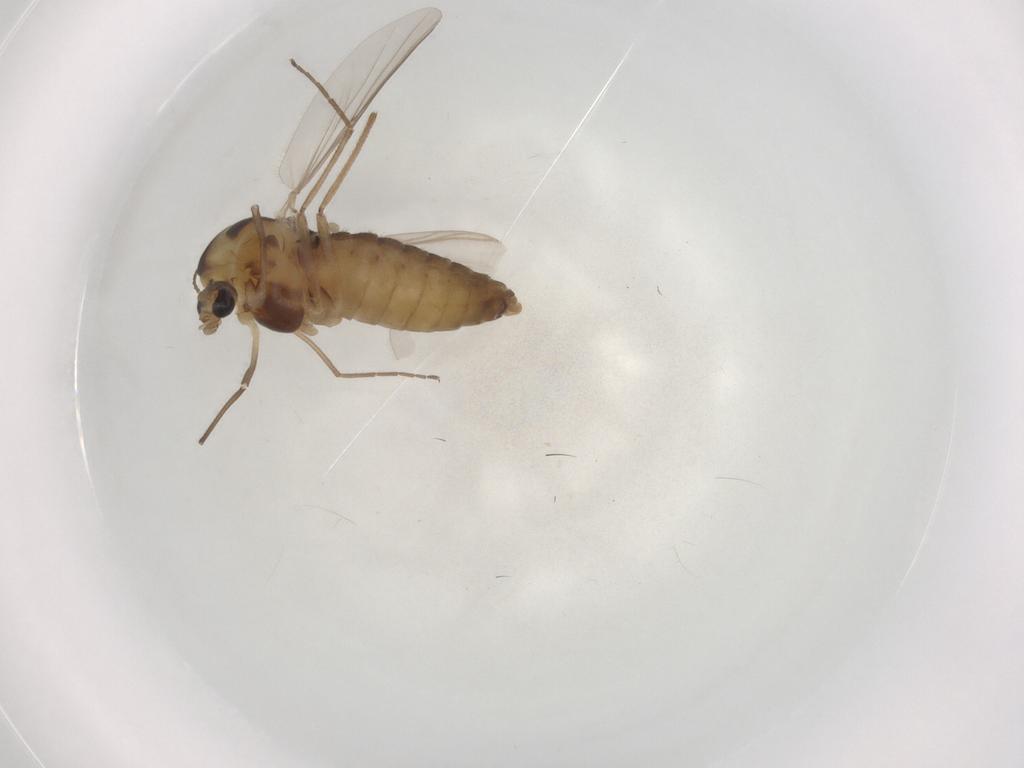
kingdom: Animalia
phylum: Arthropoda
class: Insecta
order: Diptera
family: Chironomidae
